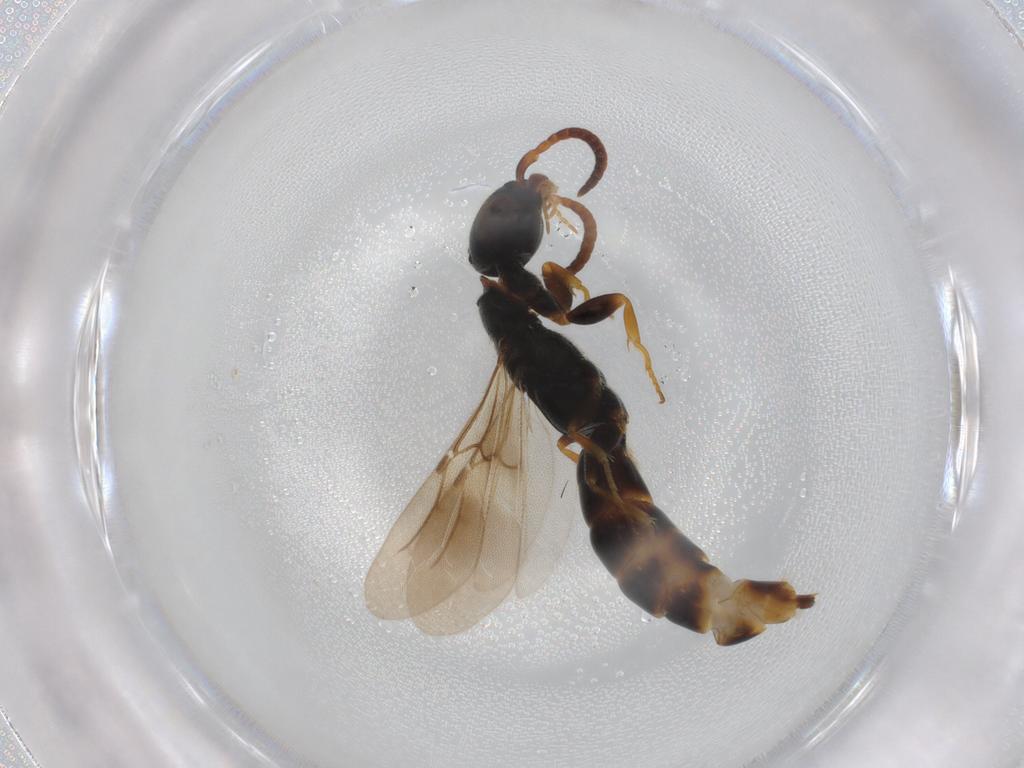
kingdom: Animalia
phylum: Arthropoda
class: Insecta
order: Hymenoptera
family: Bethylidae
